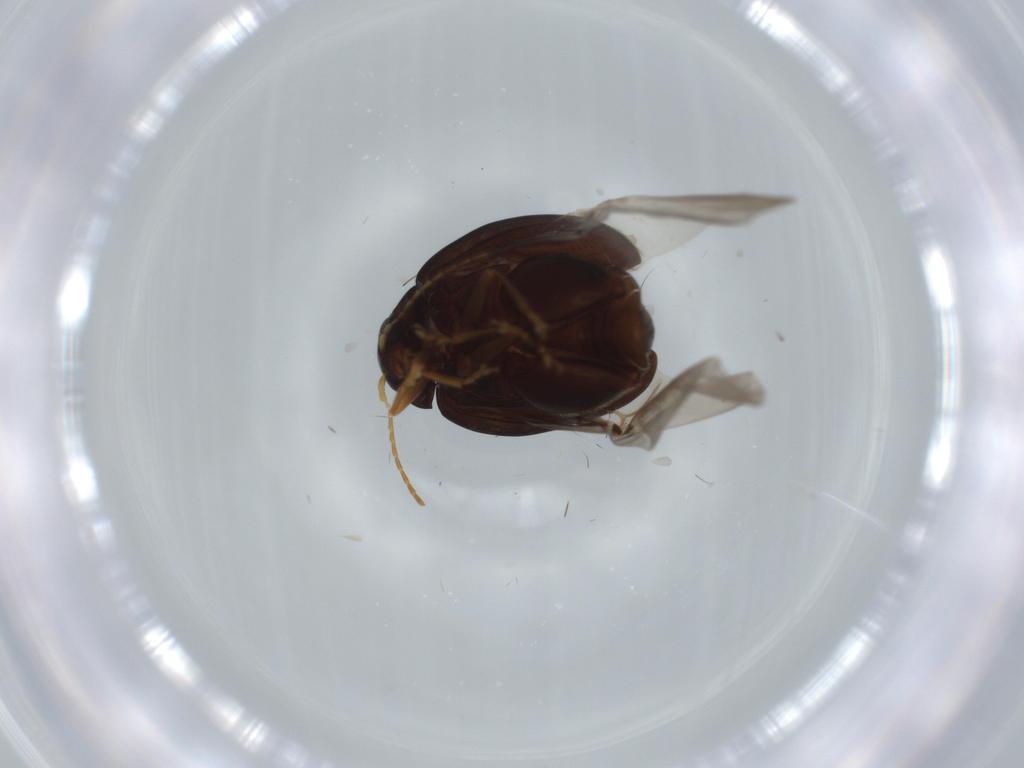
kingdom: Animalia
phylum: Arthropoda
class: Insecta
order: Coleoptera
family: Chrysomelidae
